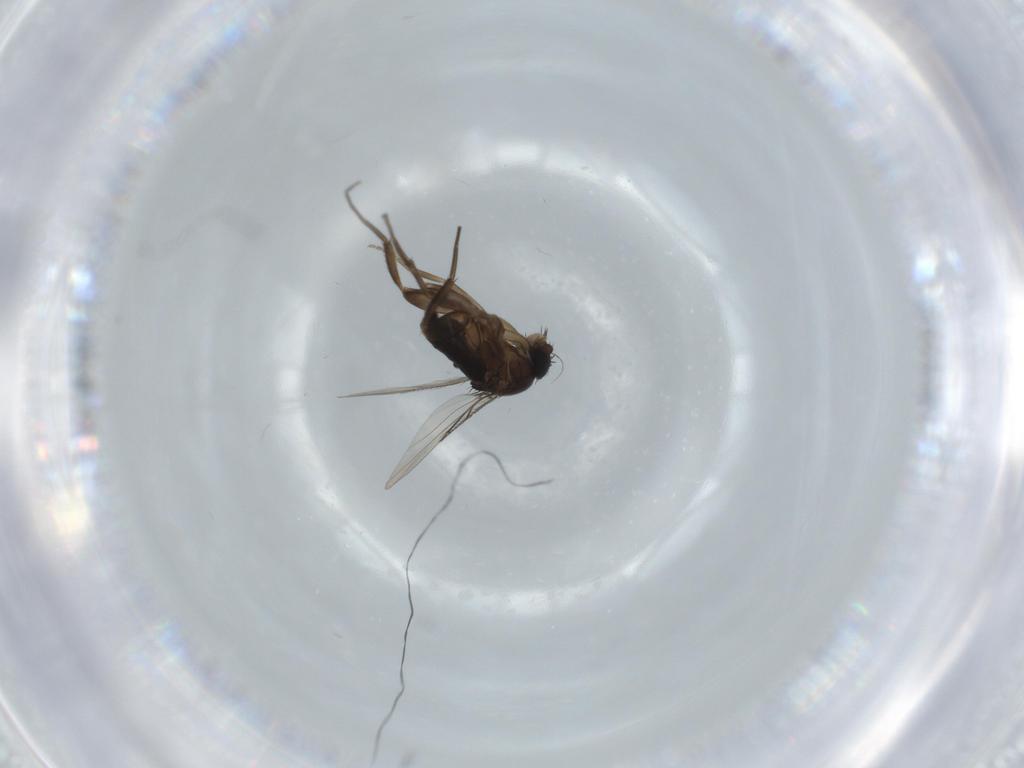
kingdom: Animalia
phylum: Arthropoda
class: Insecta
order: Diptera
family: Phoridae
